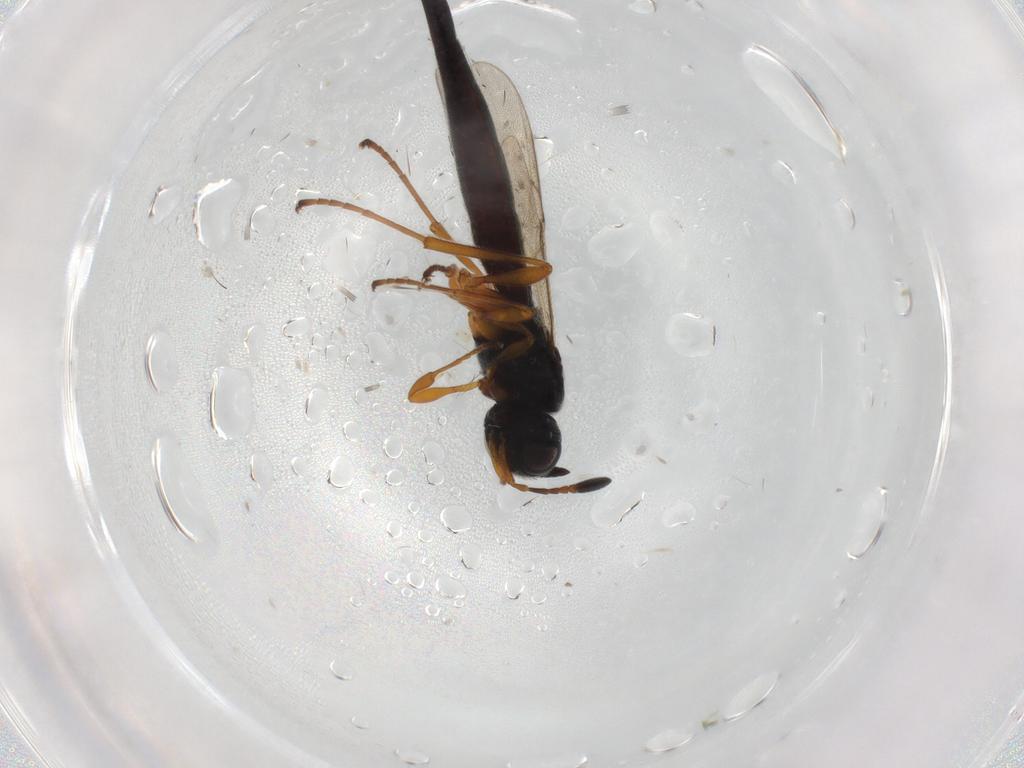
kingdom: Animalia
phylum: Arthropoda
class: Insecta
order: Hymenoptera
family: Scelionidae
